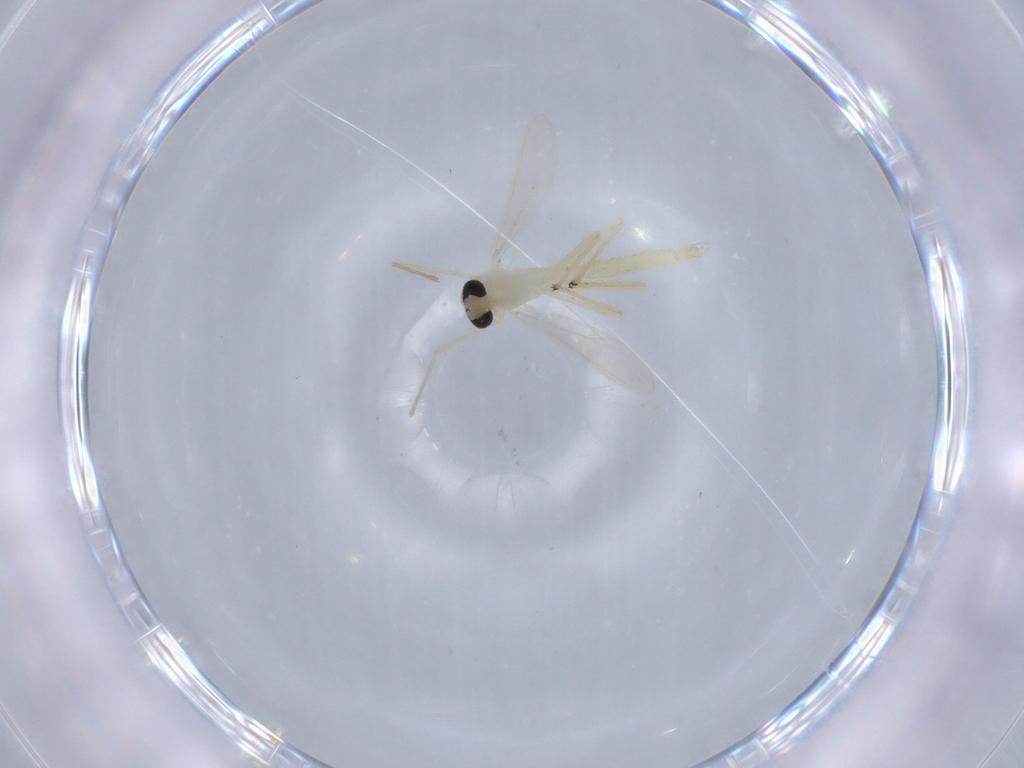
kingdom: Animalia
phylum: Arthropoda
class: Insecta
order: Diptera
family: Chironomidae
